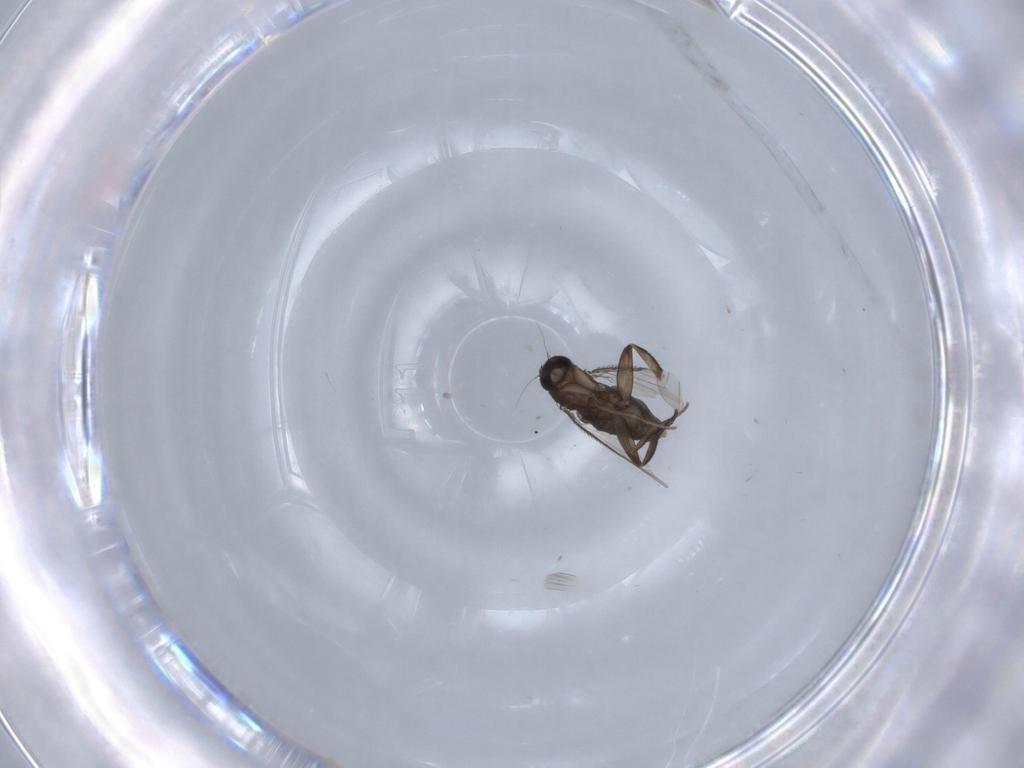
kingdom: Animalia
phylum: Arthropoda
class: Insecta
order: Diptera
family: Phoridae
